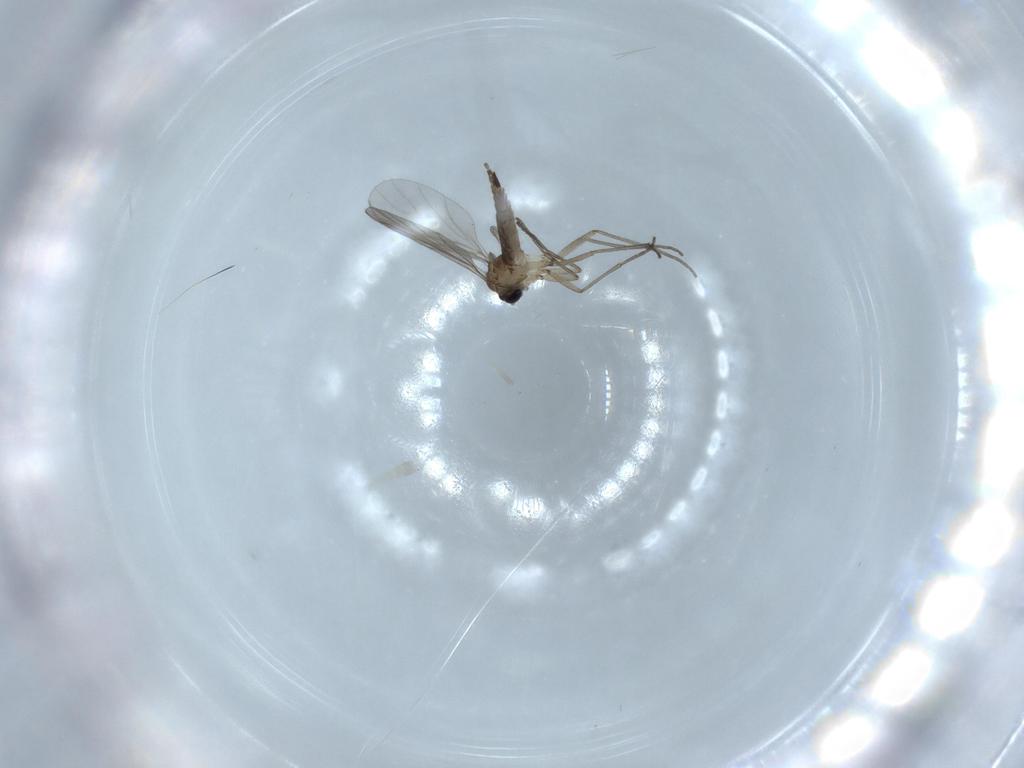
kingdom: Animalia
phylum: Arthropoda
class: Insecta
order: Diptera
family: Sciaridae
